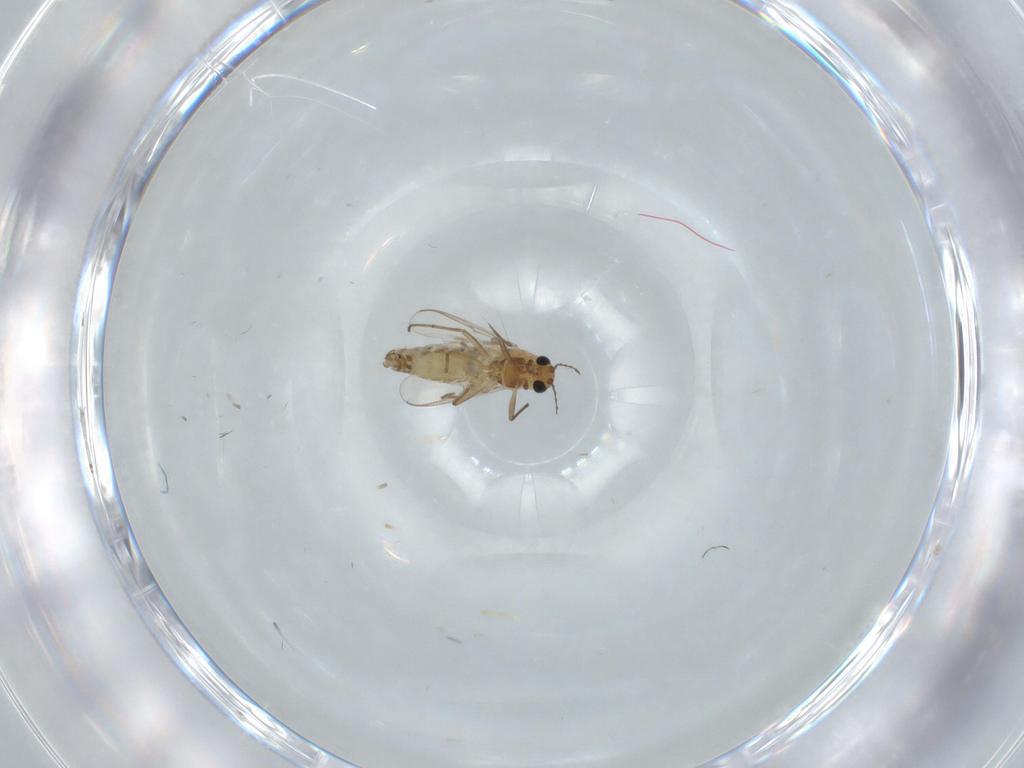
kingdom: Animalia
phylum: Arthropoda
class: Insecta
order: Diptera
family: Chironomidae
